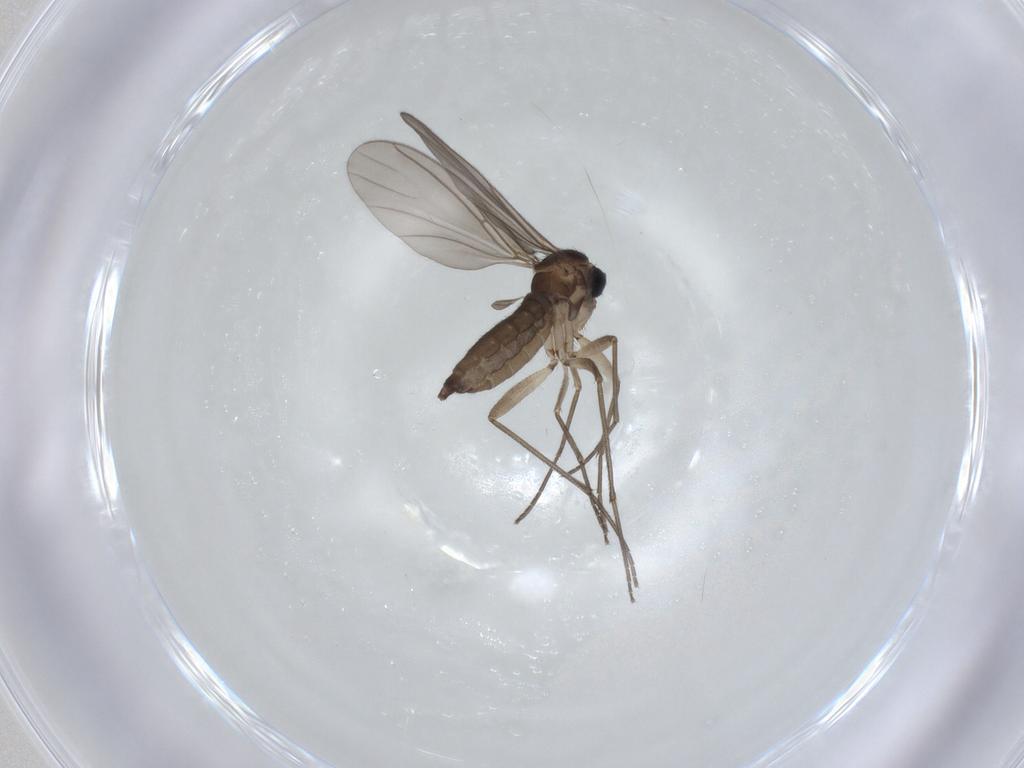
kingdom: Animalia
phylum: Arthropoda
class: Insecta
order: Diptera
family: Sciaridae
